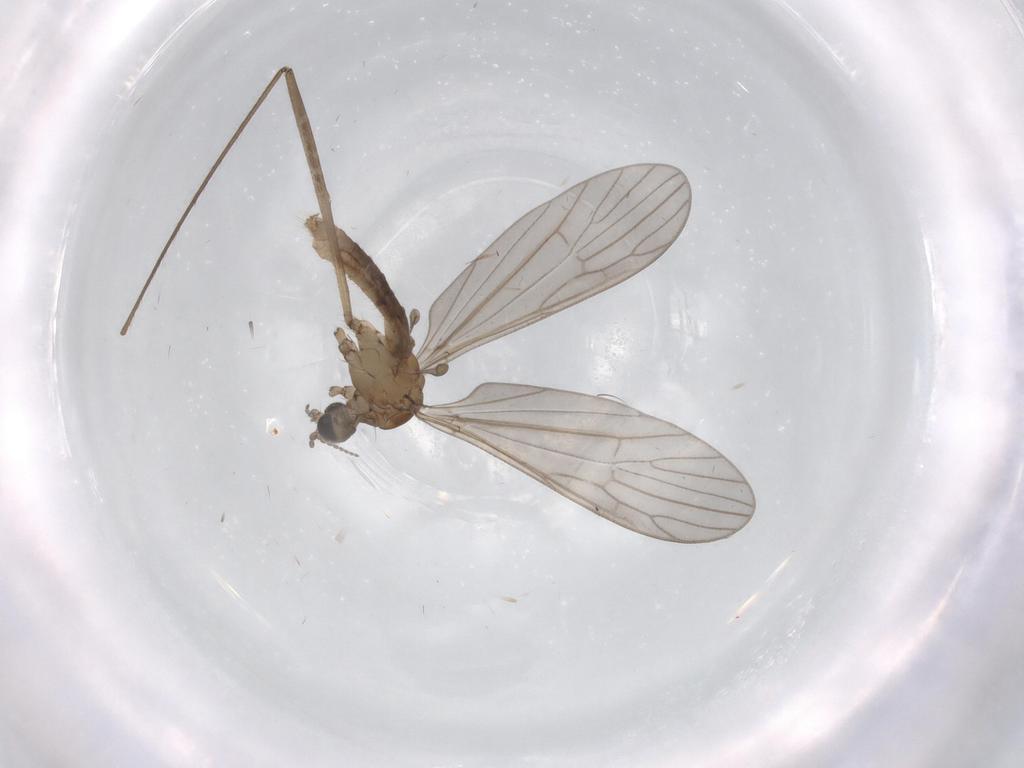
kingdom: Animalia
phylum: Arthropoda
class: Insecta
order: Diptera
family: Sciaridae
